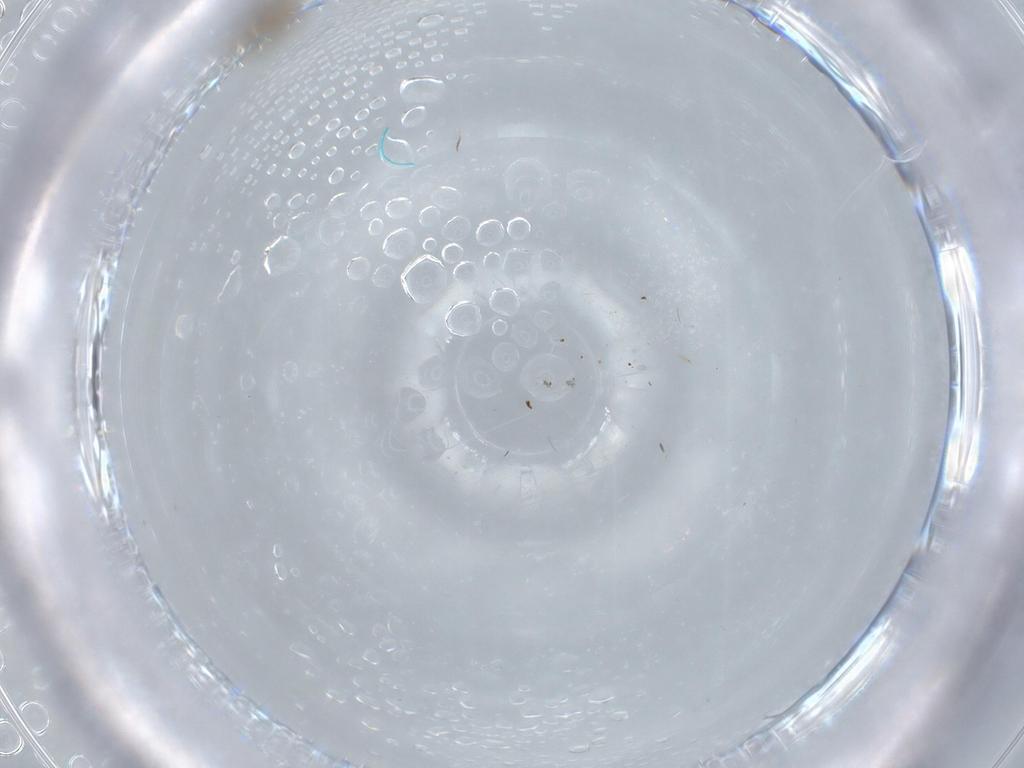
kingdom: Animalia
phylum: Arthropoda
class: Insecta
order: Diptera
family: Cecidomyiidae
